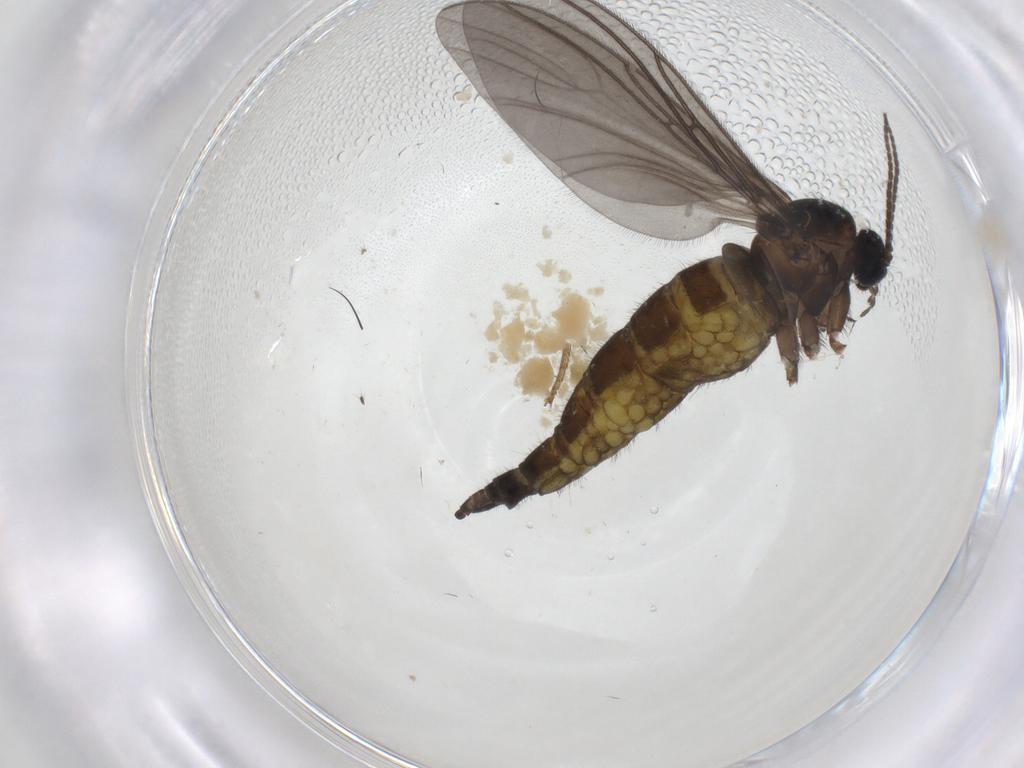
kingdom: Animalia
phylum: Arthropoda
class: Insecta
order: Diptera
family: Sciaridae
